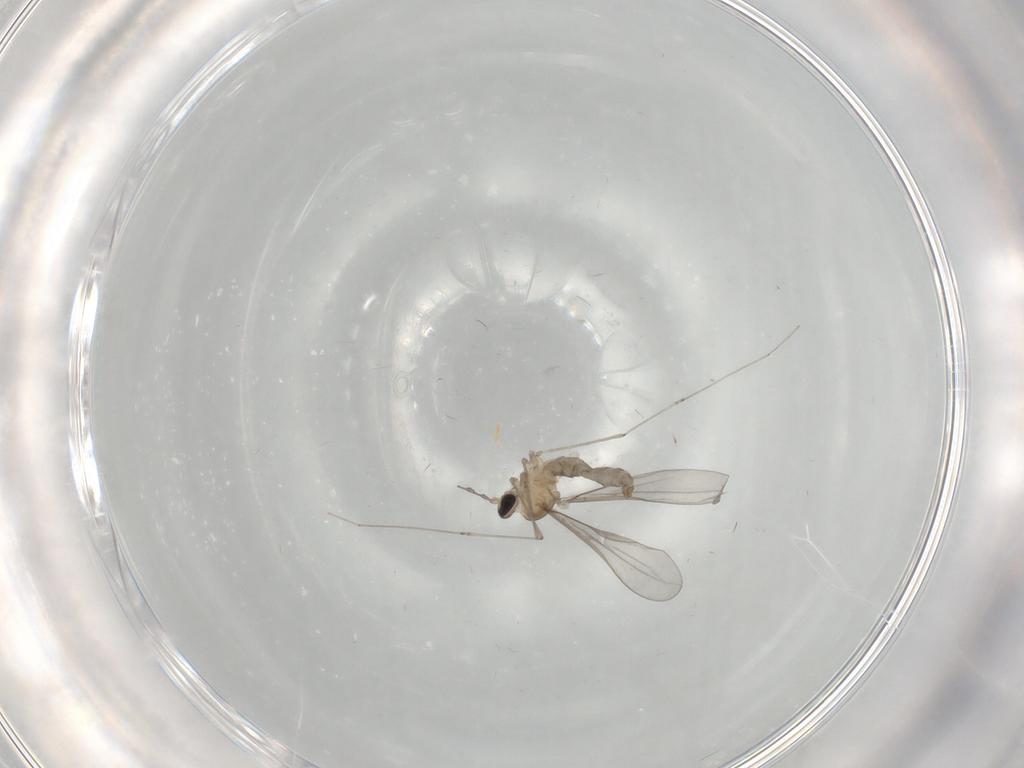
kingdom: Animalia
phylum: Arthropoda
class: Insecta
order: Diptera
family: Cecidomyiidae
